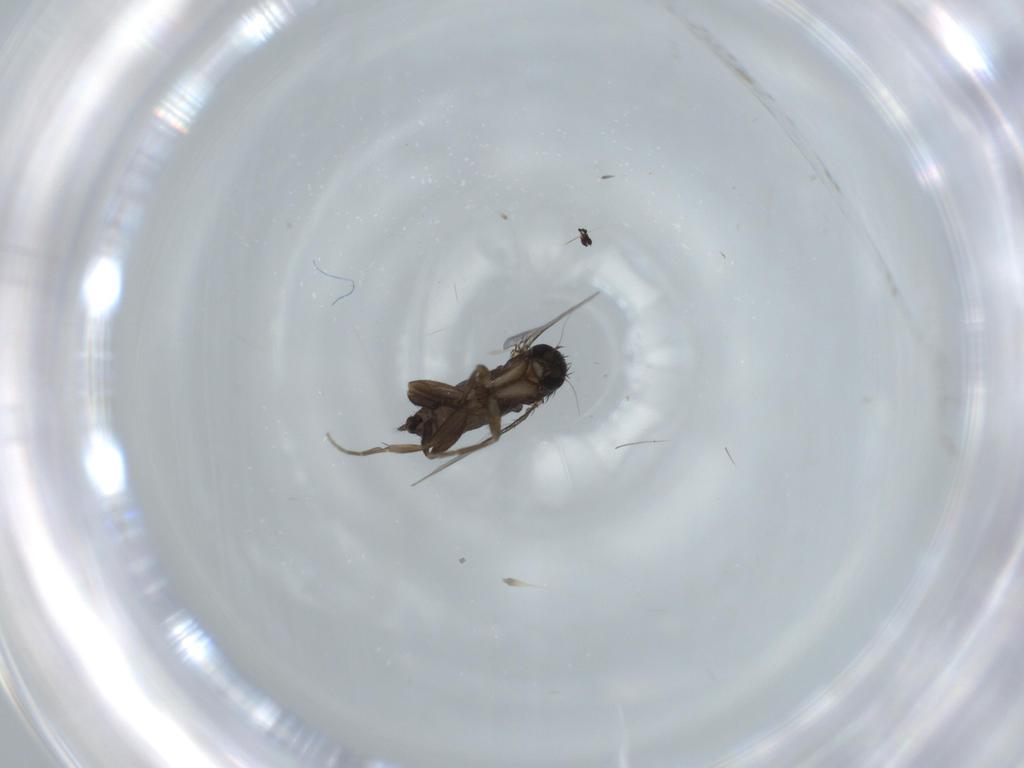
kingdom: Animalia
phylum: Arthropoda
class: Insecta
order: Diptera
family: Phoridae
